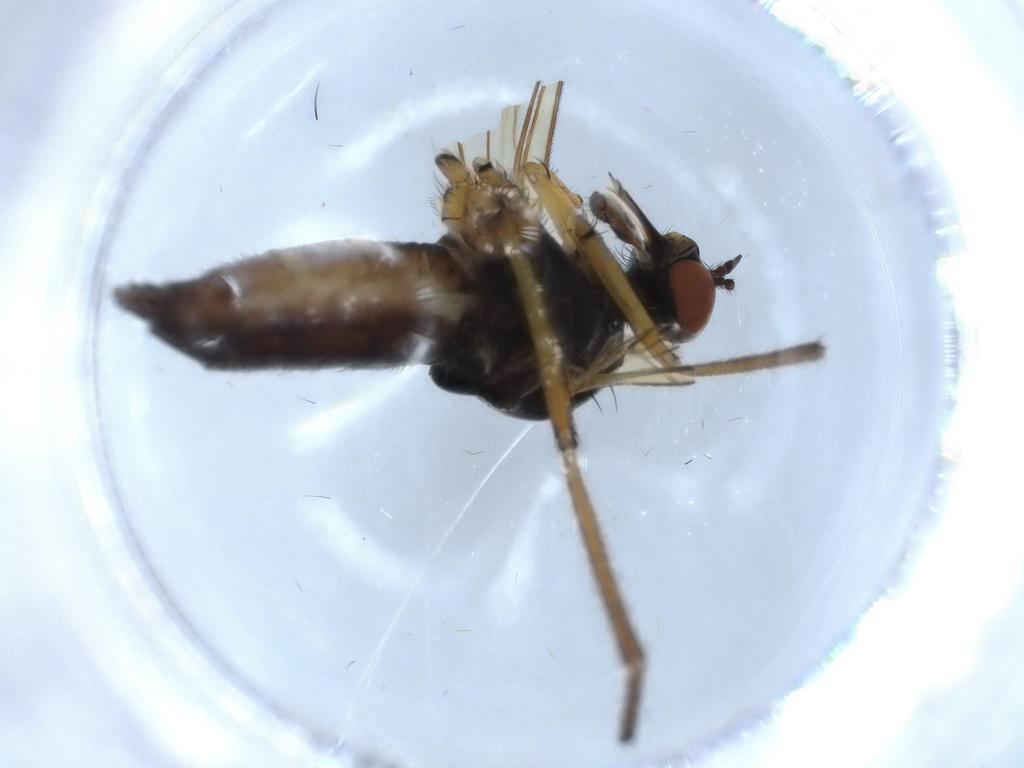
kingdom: Animalia
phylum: Arthropoda
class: Insecta
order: Diptera
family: Empididae
